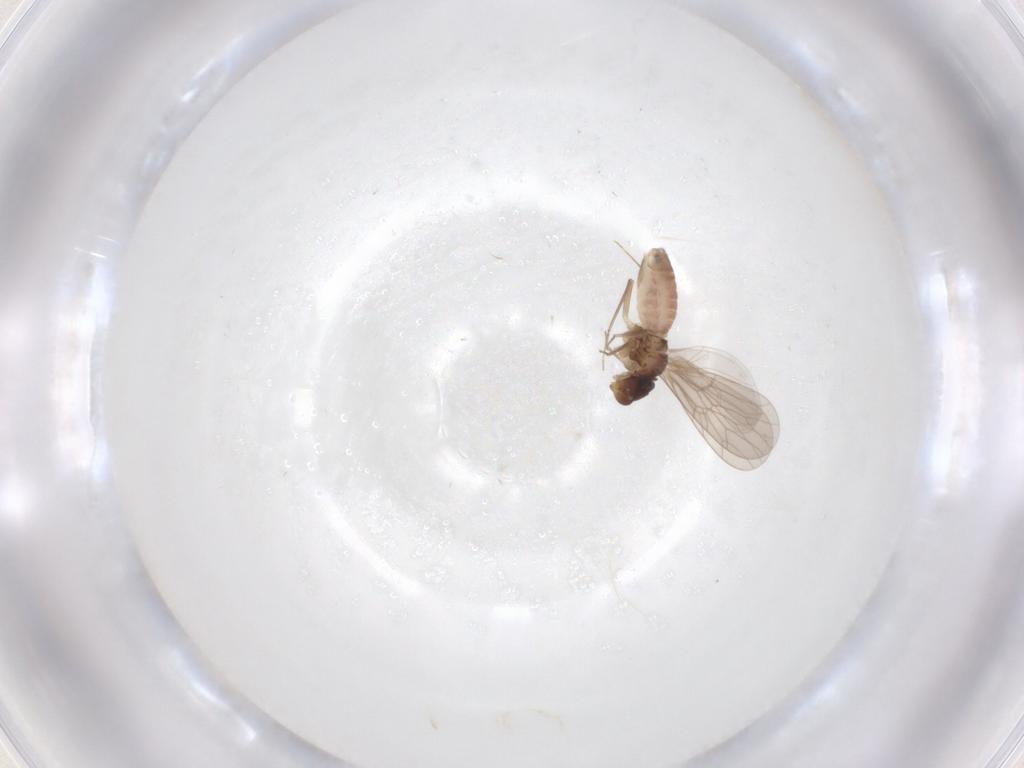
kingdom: Animalia
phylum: Arthropoda
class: Insecta
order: Psocodea
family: Lepidopsocidae
